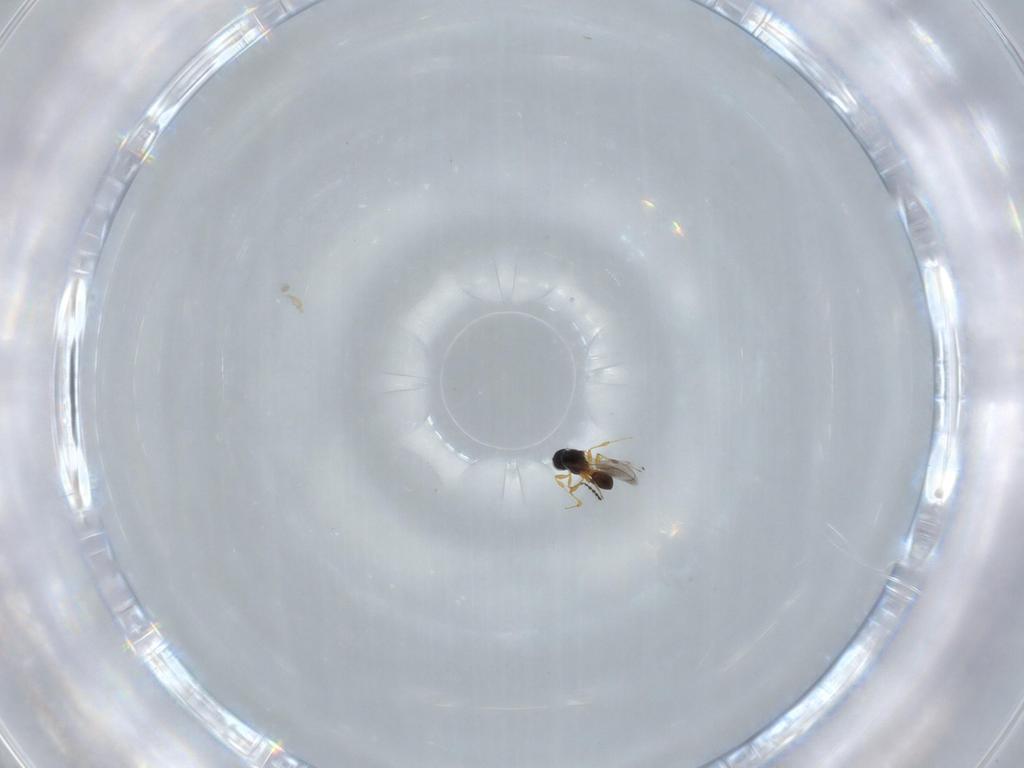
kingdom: Animalia
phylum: Arthropoda
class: Insecta
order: Hymenoptera
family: Platygastridae
